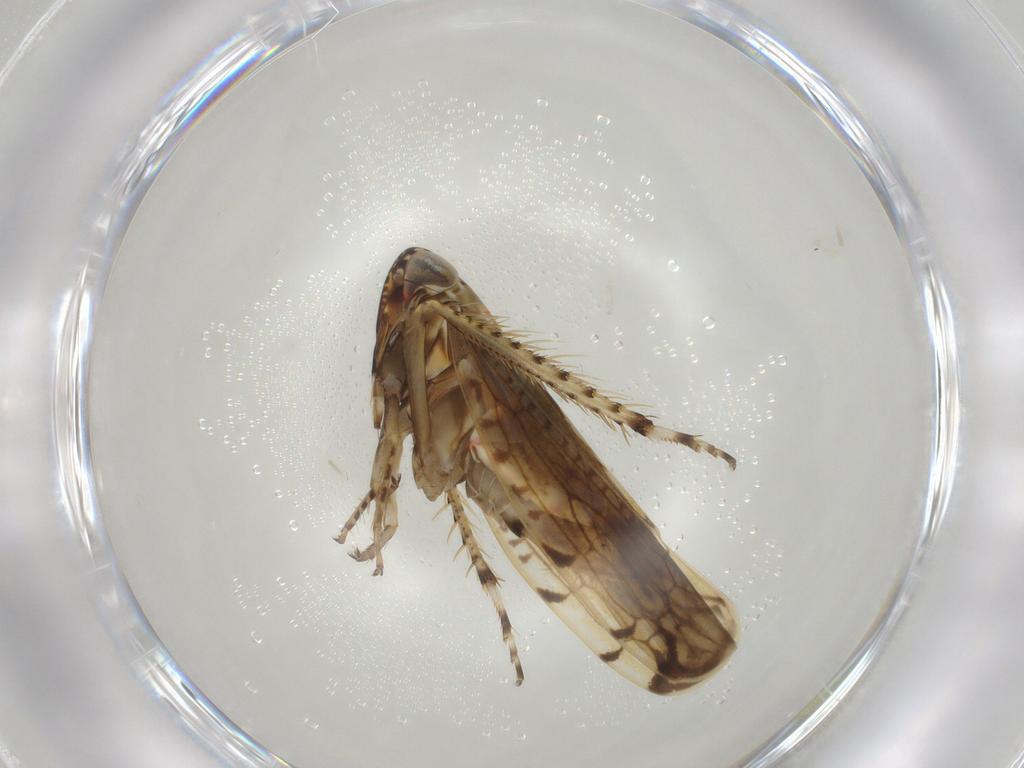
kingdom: Animalia
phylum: Arthropoda
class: Insecta
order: Hemiptera
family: Cicadellidae
